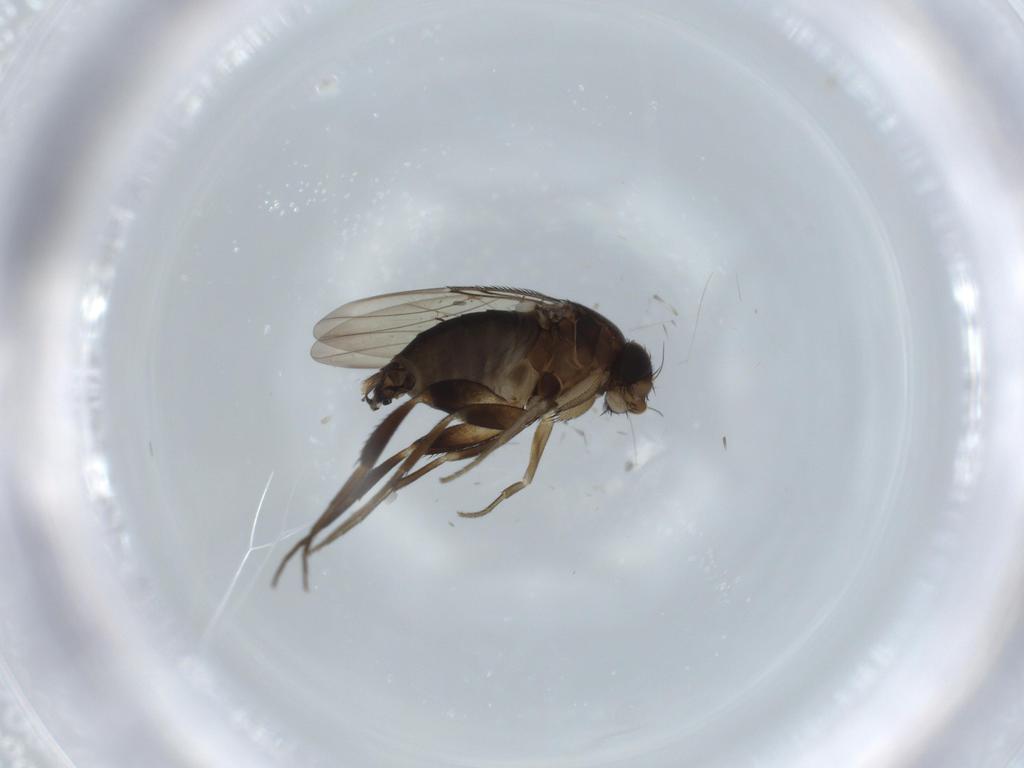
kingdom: Animalia
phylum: Arthropoda
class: Insecta
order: Diptera
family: Phoridae
